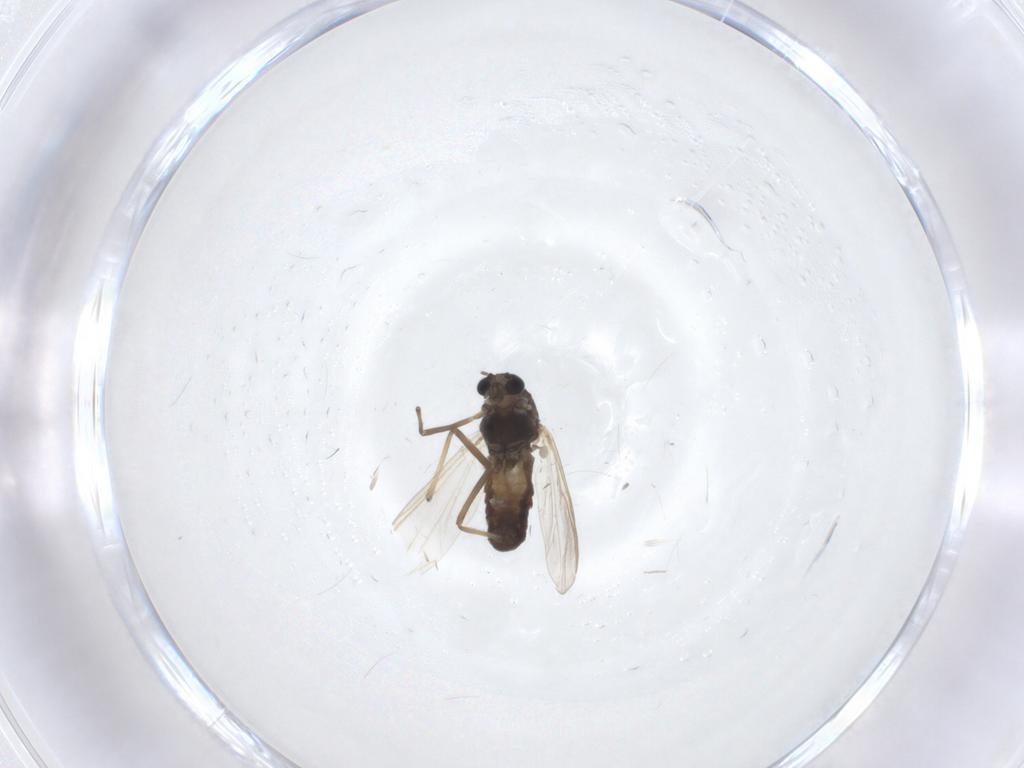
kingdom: Animalia
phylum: Arthropoda
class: Insecta
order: Diptera
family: Chironomidae
